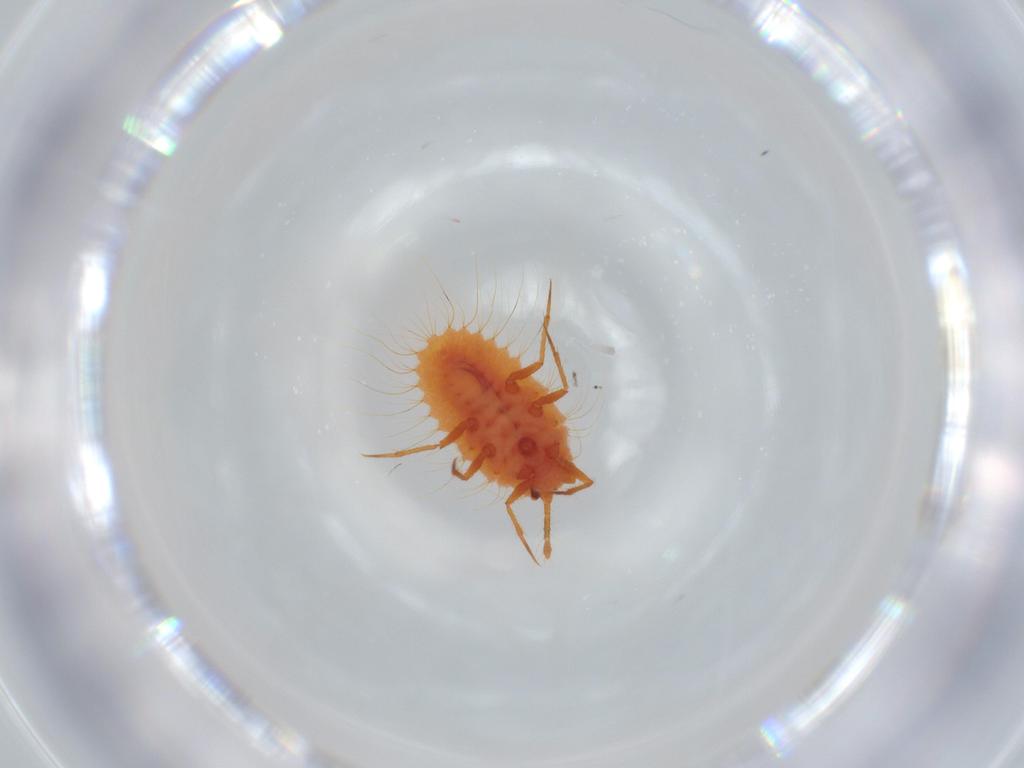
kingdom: Animalia
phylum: Arthropoda
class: Insecta
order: Hemiptera
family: Coccoidea_incertae_sedis
